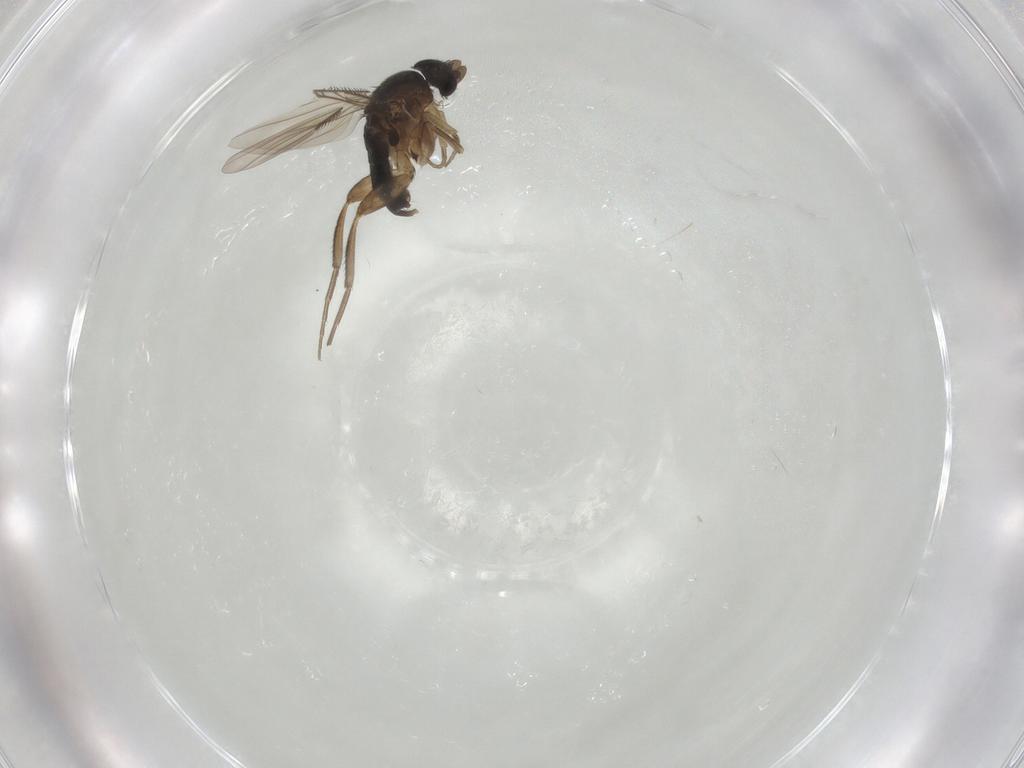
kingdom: Animalia
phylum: Arthropoda
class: Insecta
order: Diptera
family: Phoridae
